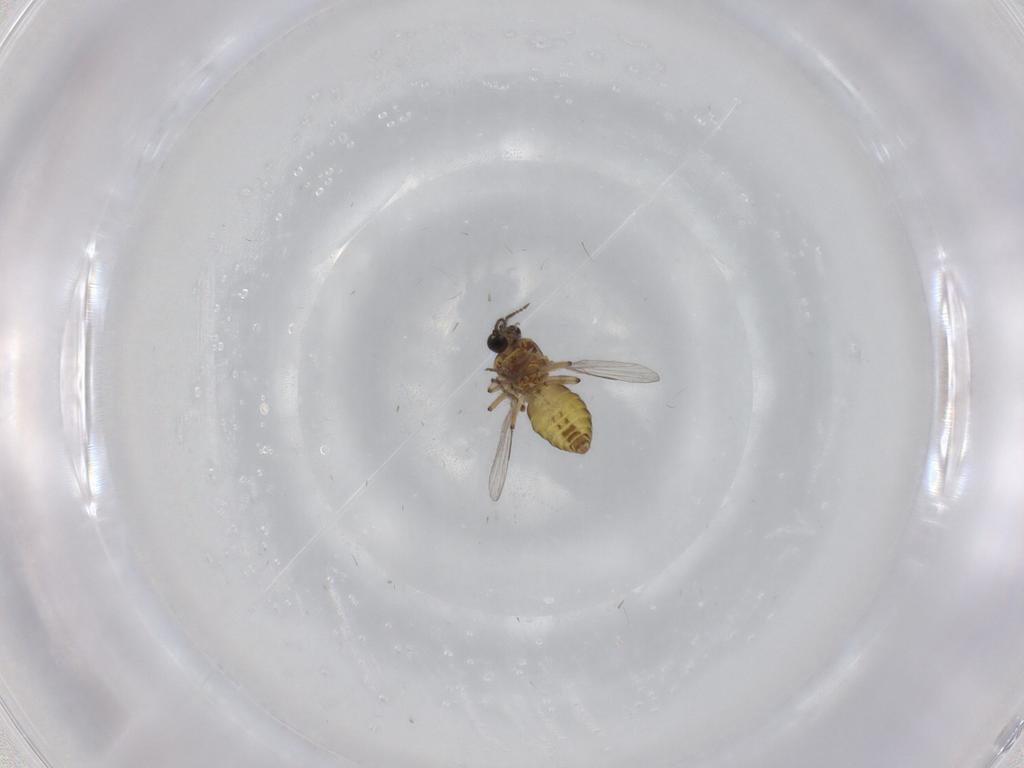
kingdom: Animalia
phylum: Arthropoda
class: Insecta
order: Diptera
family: Ceratopogonidae
